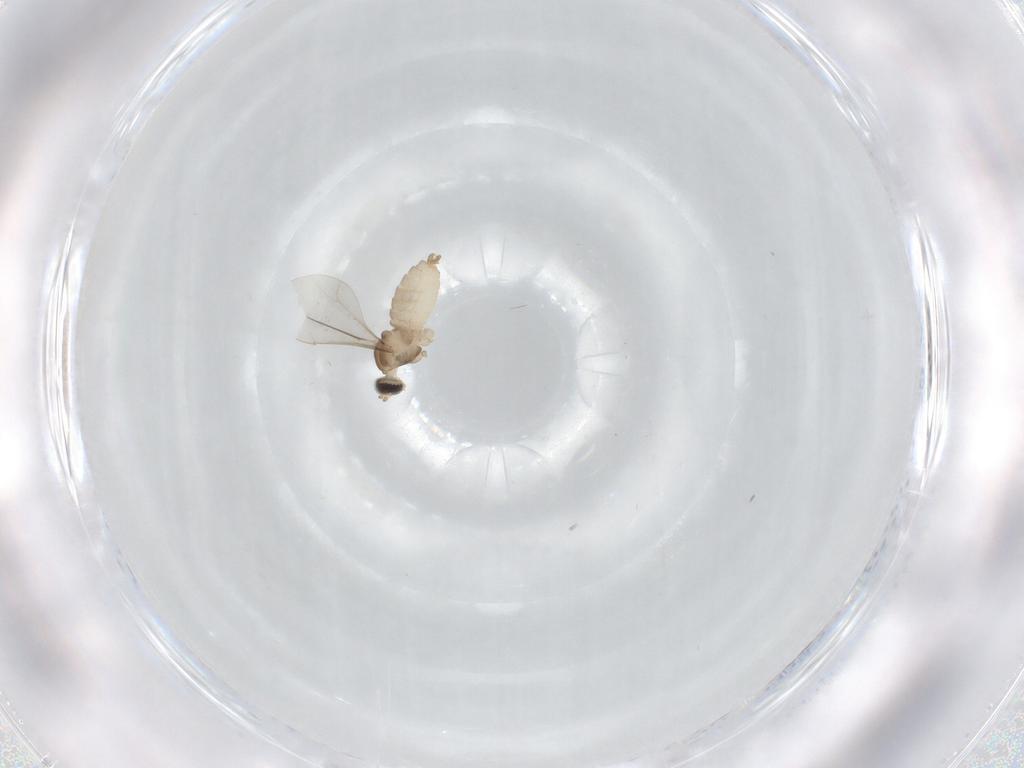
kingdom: Animalia
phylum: Arthropoda
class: Insecta
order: Diptera
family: Cecidomyiidae
